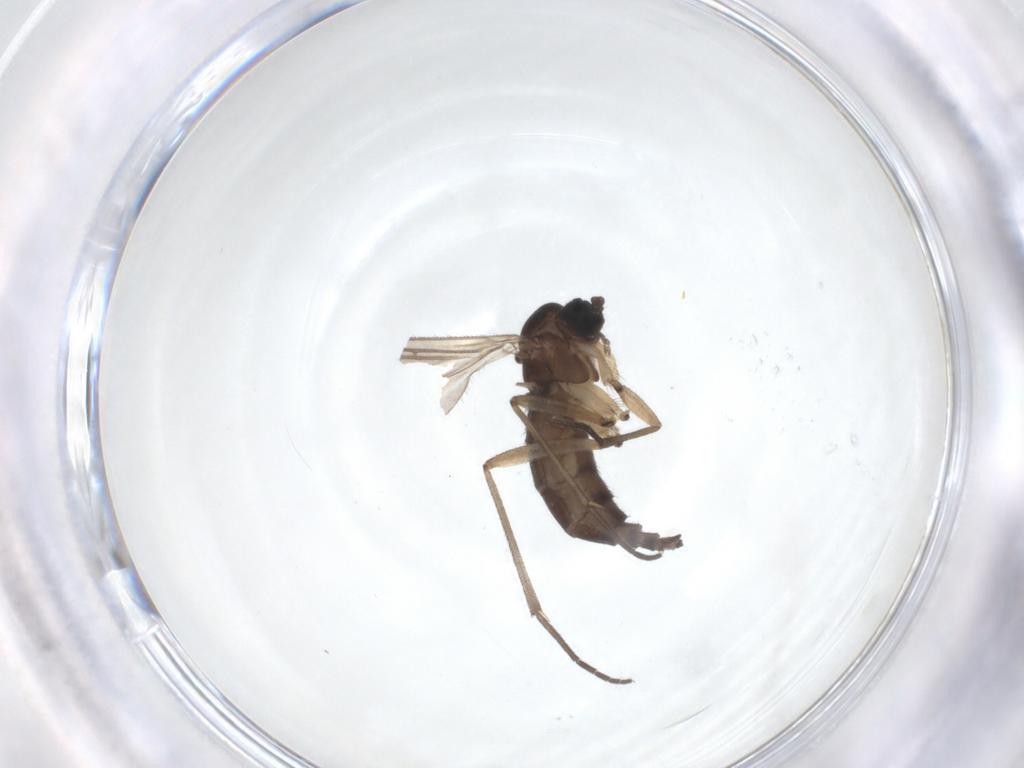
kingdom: Animalia
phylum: Arthropoda
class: Insecta
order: Diptera
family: Sciaridae
